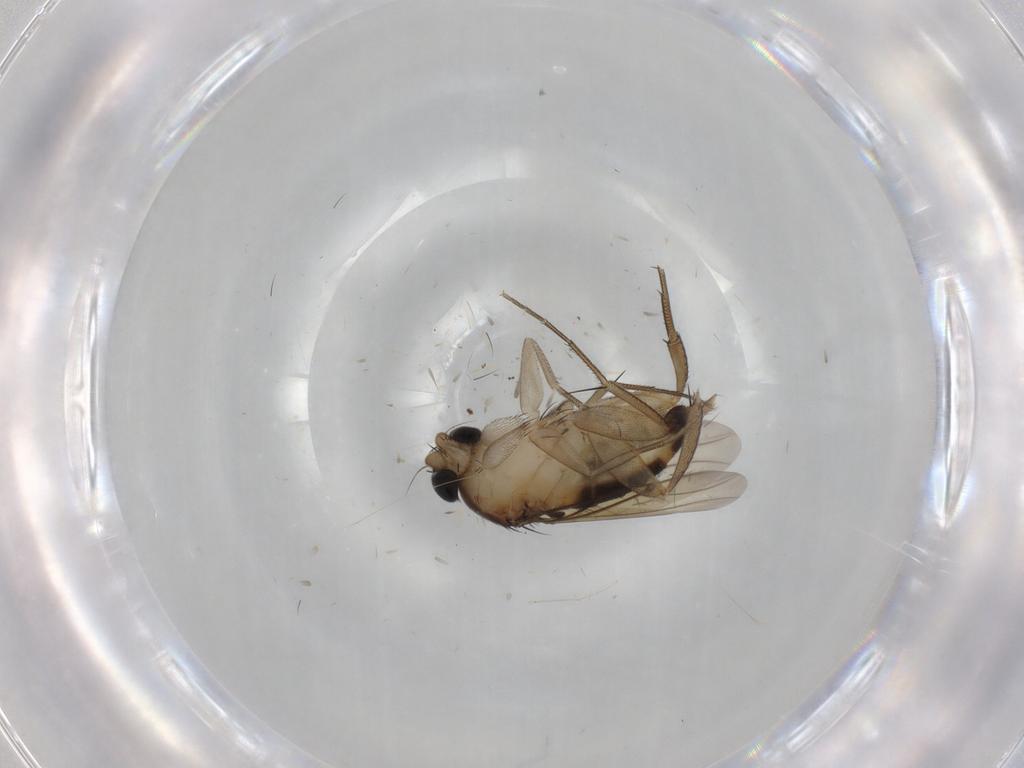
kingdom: Animalia
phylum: Arthropoda
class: Insecta
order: Diptera
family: Phoridae
